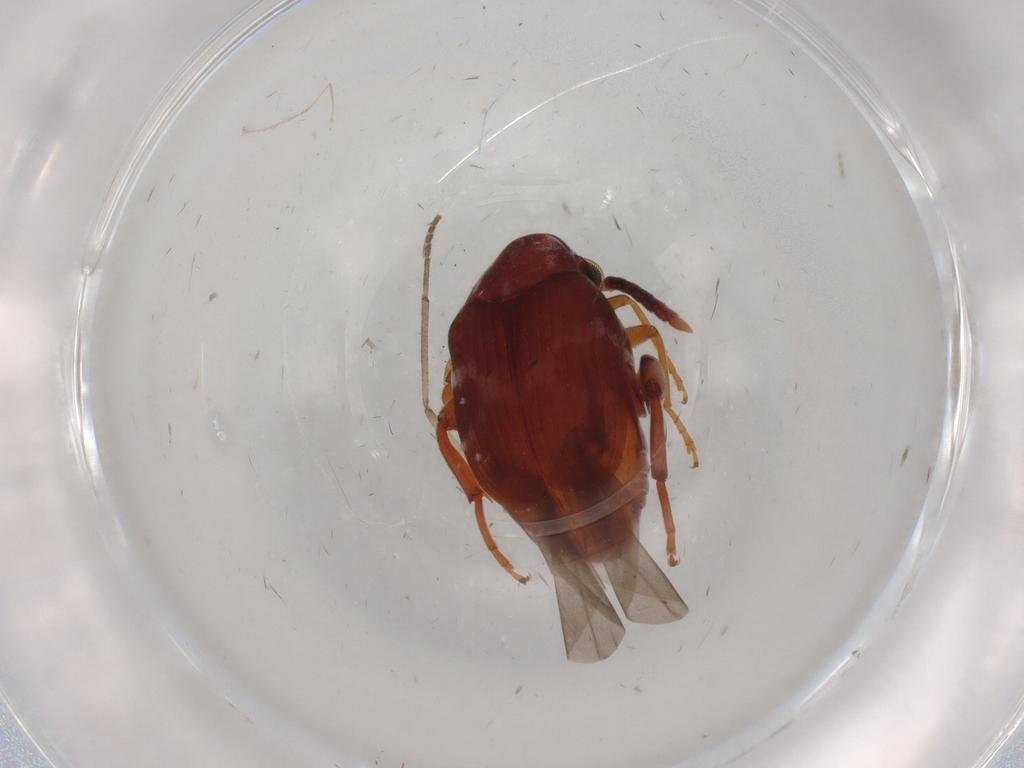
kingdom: Animalia
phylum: Arthropoda
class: Insecta
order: Coleoptera
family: Chrysomelidae
